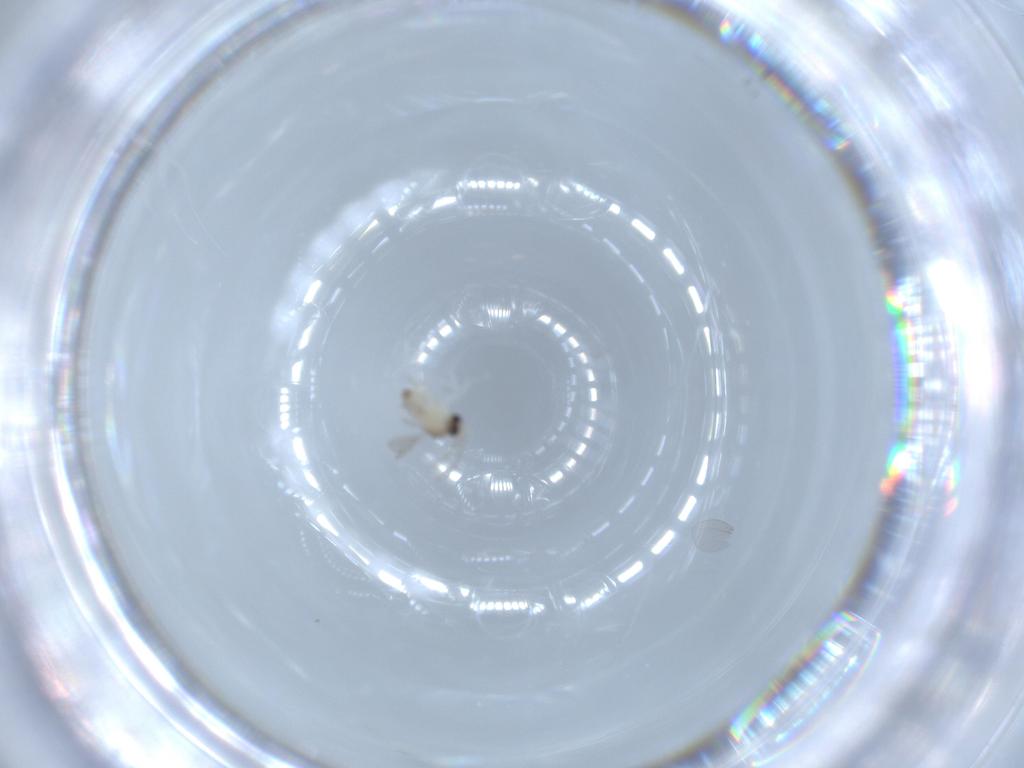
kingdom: Animalia
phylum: Arthropoda
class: Insecta
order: Diptera
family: Cecidomyiidae
